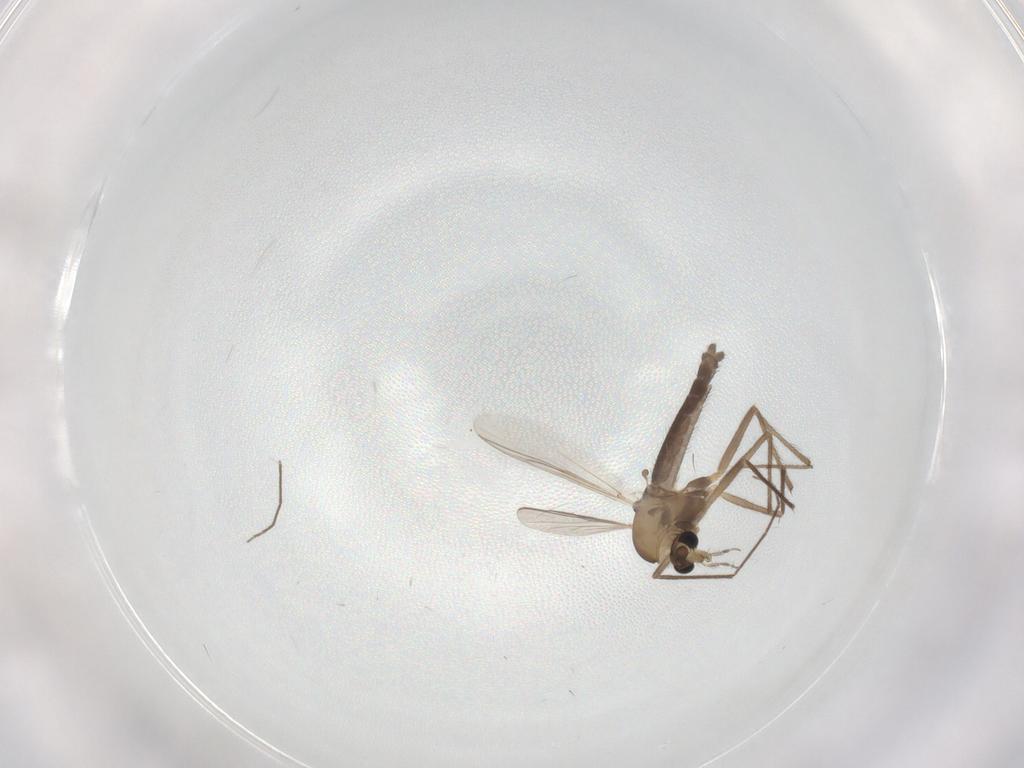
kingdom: Animalia
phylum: Arthropoda
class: Insecta
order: Diptera
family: Chironomidae
